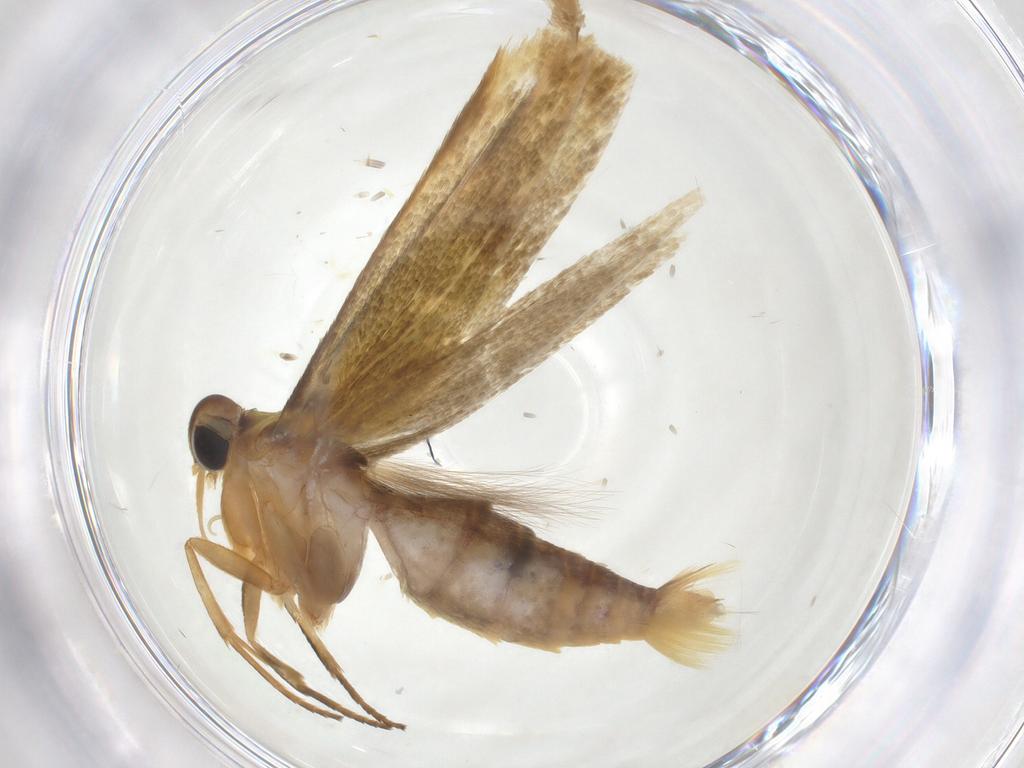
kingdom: Animalia
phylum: Arthropoda
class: Insecta
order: Lepidoptera
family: Stathmopodidae
